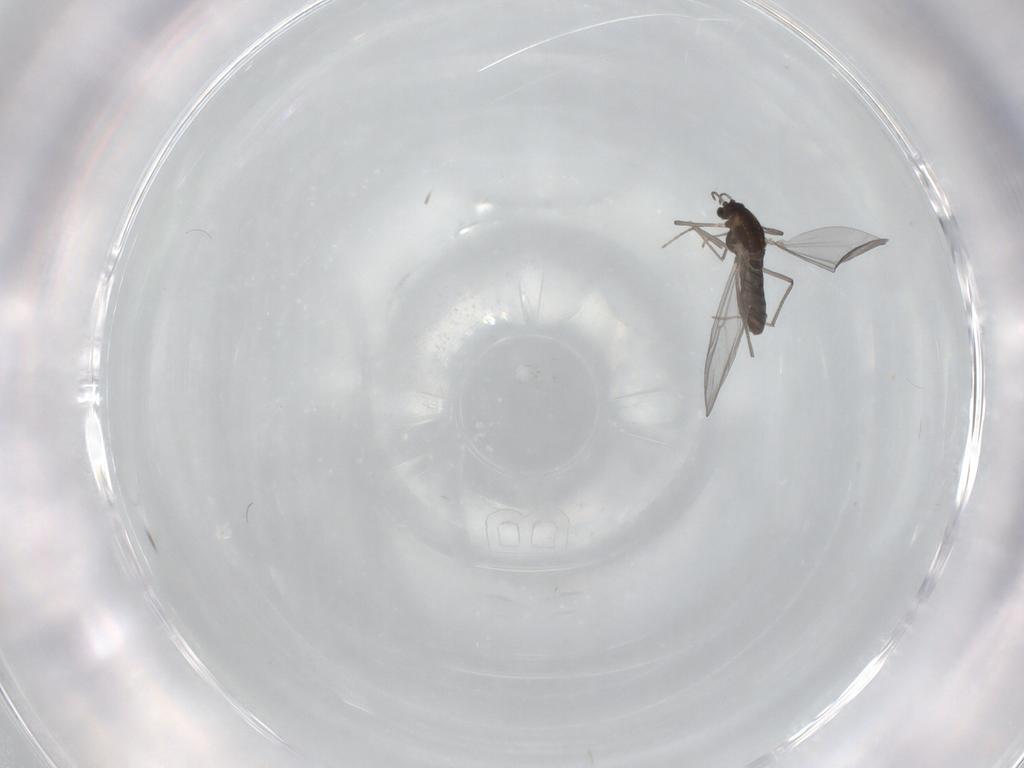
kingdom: Animalia
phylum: Arthropoda
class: Insecta
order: Diptera
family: Chironomidae
